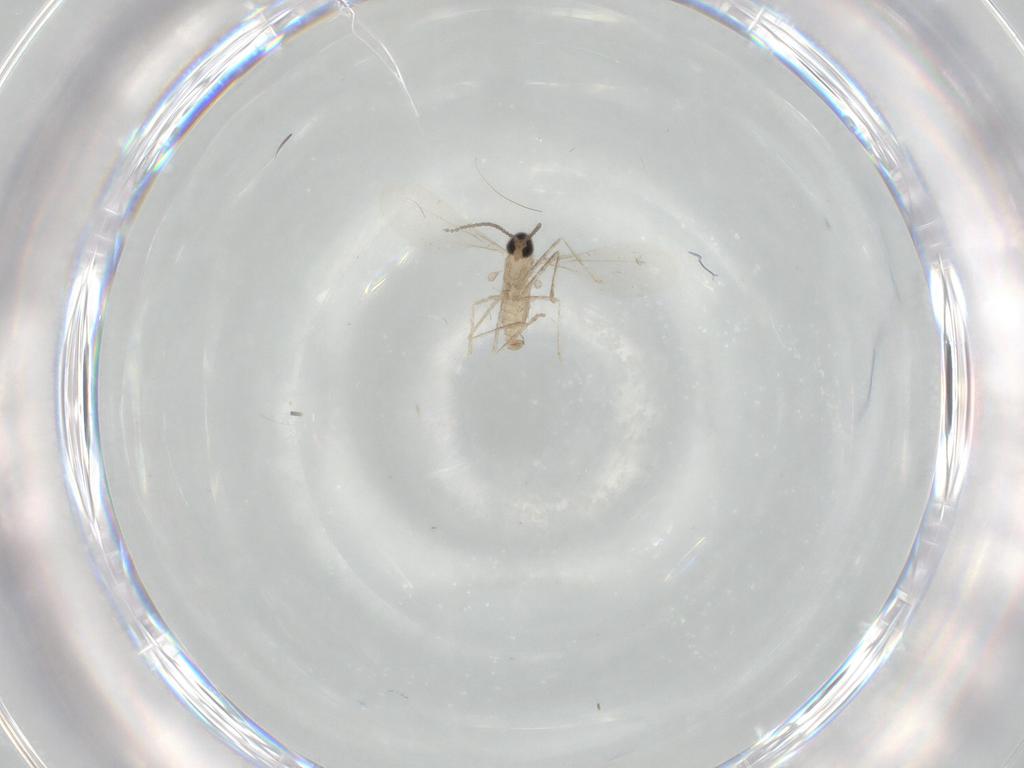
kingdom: Animalia
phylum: Arthropoda
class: Insecta
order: Diptera
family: Cecidomyiidae
